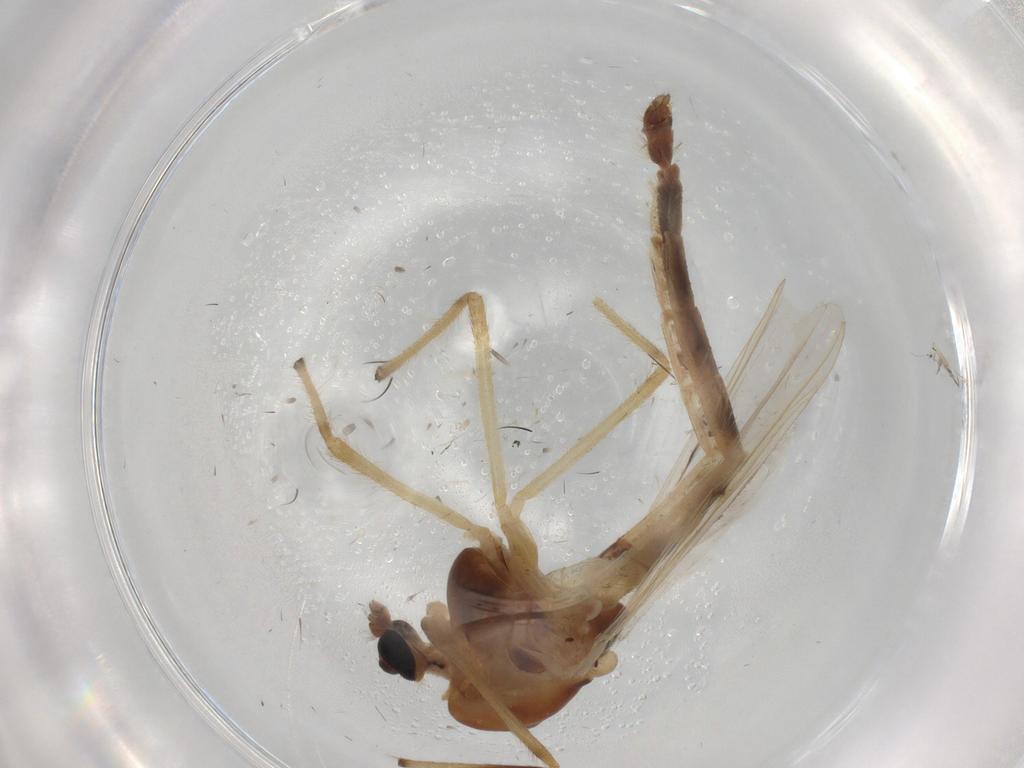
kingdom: Animalia
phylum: Arthropoda
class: Insecta
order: Diptera
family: Chironomidae
